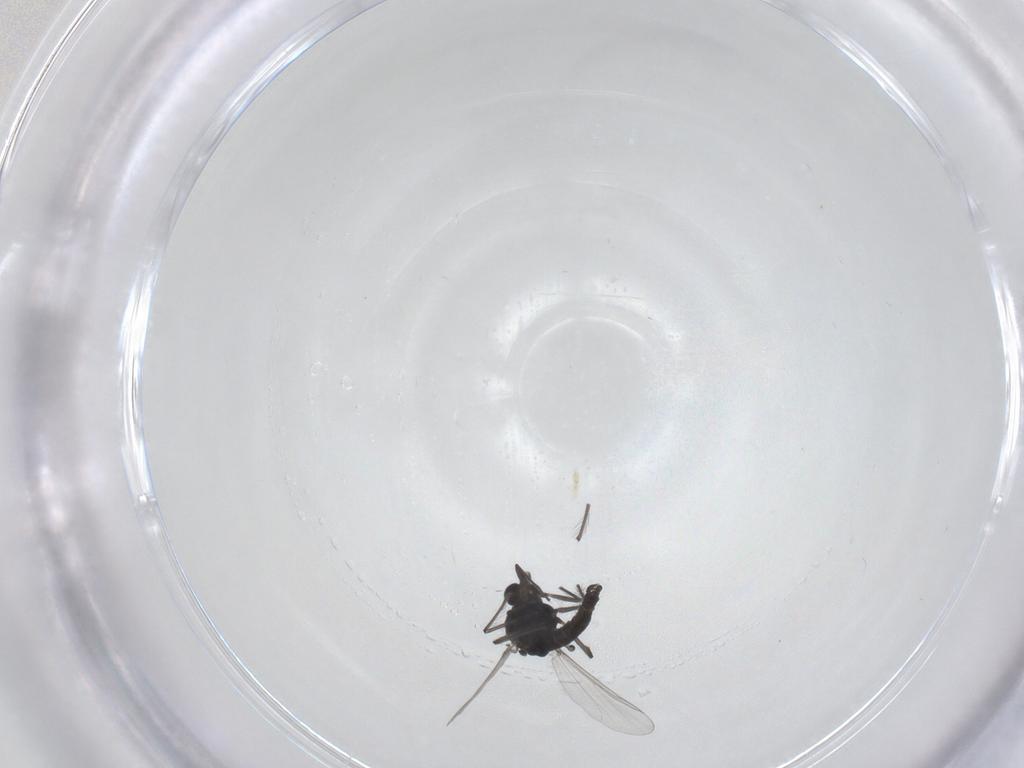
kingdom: Animalia
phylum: Arthropoda
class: Insecta
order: Diptera
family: Chironomidae
